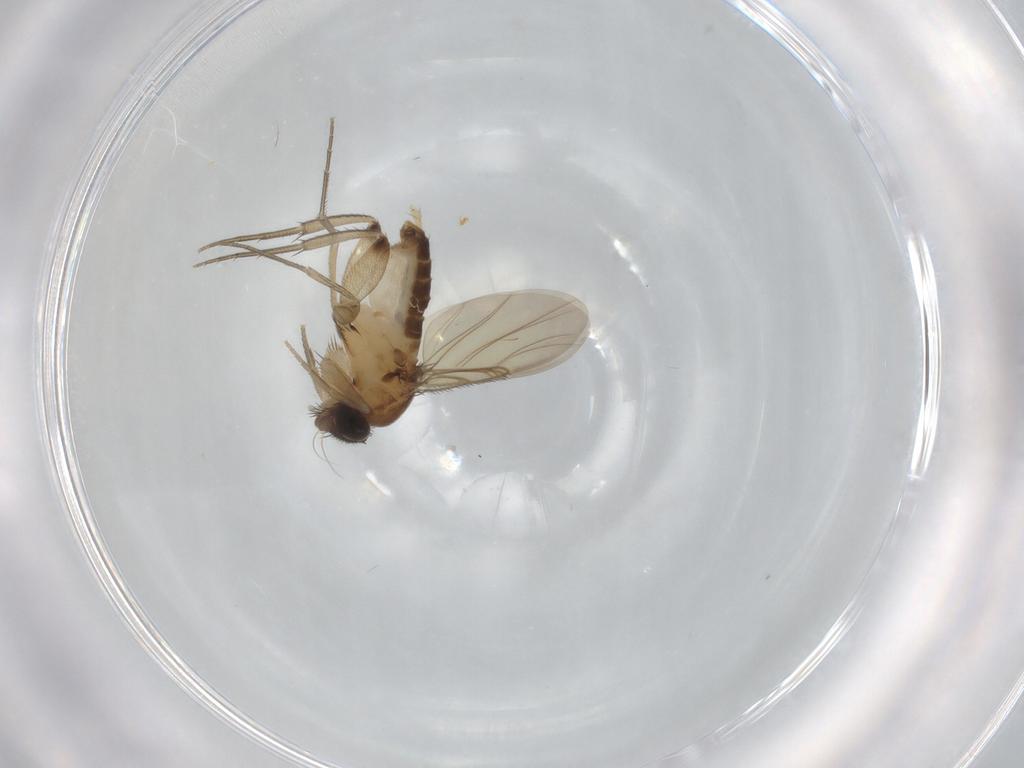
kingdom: Animalia
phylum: Arthropoda
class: Insecta
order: Diptera
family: Phoridae
